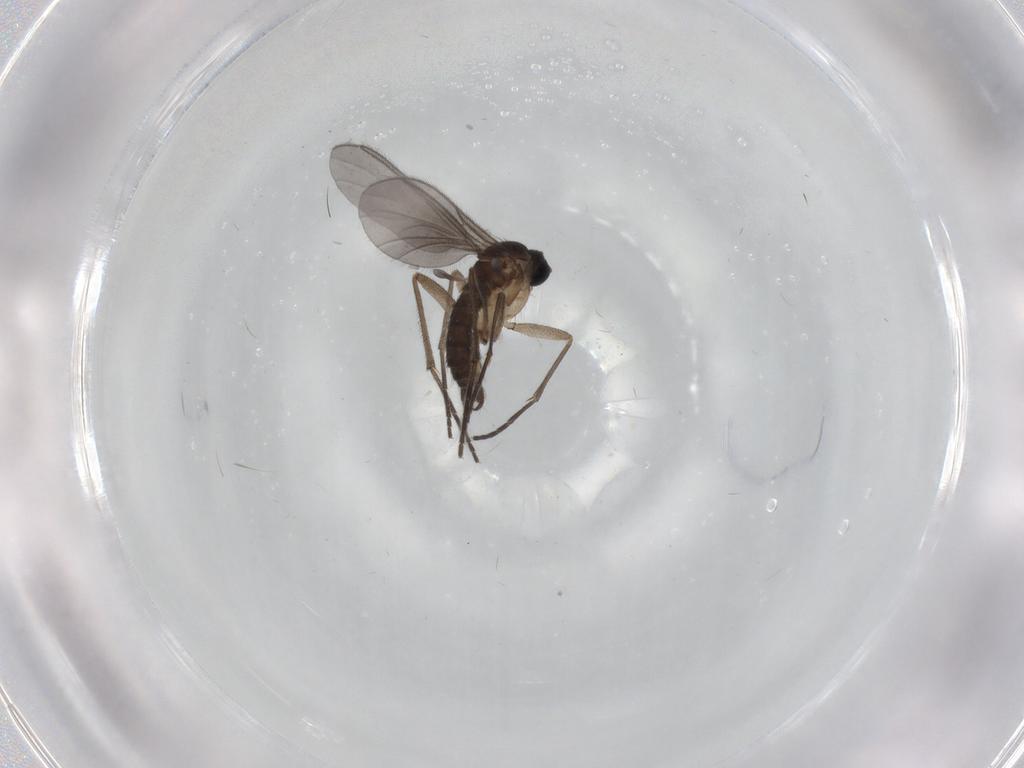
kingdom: Animalia
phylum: Arthropoda
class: Insecta
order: Diptera
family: Sciaridae
